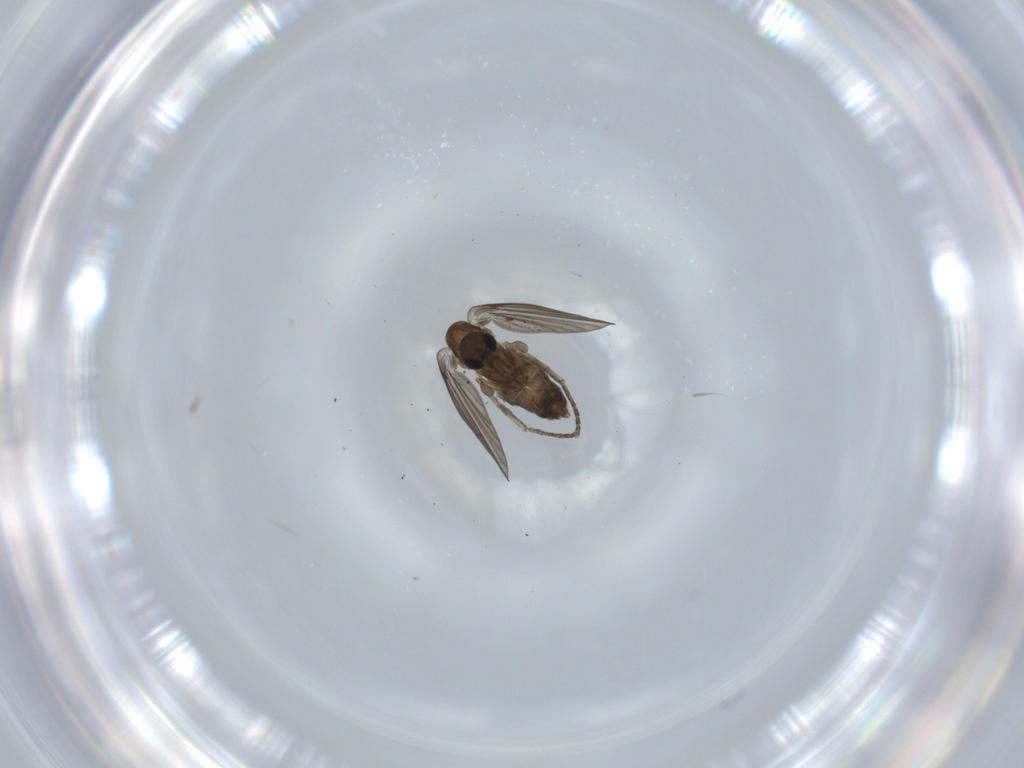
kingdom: Animalia
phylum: Arthropoda
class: Insecta
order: Diptera
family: Psychodidae
